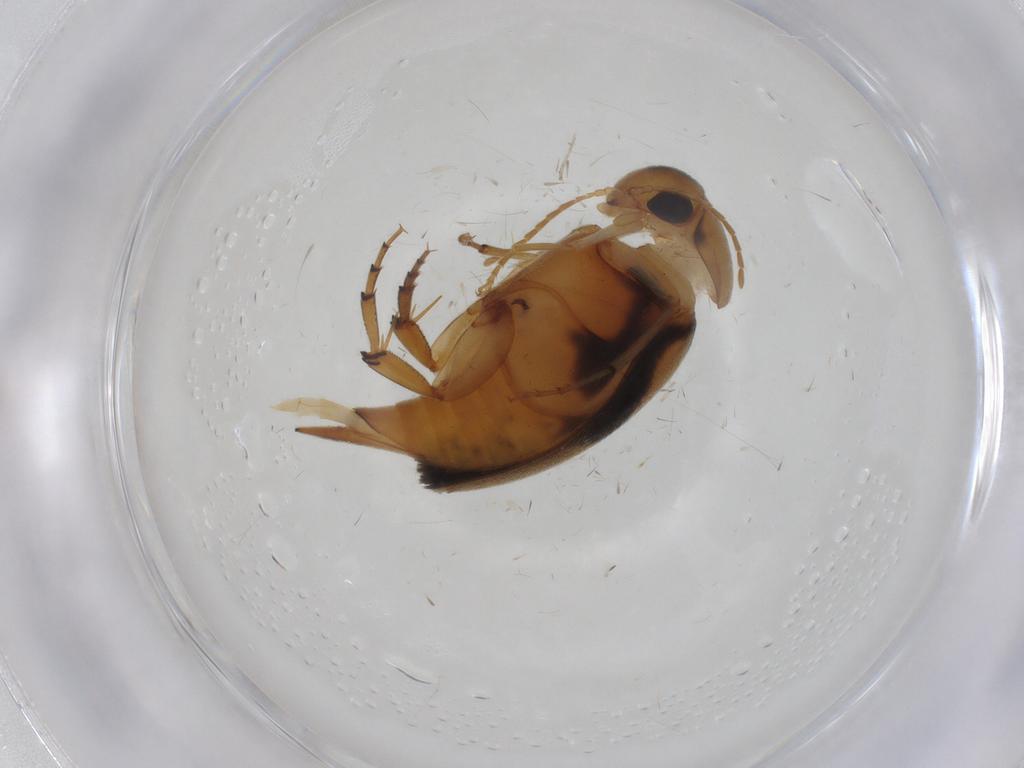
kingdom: Animalia
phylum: Arthropoda
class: Insecta
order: Coleoptera
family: Mordellidae
